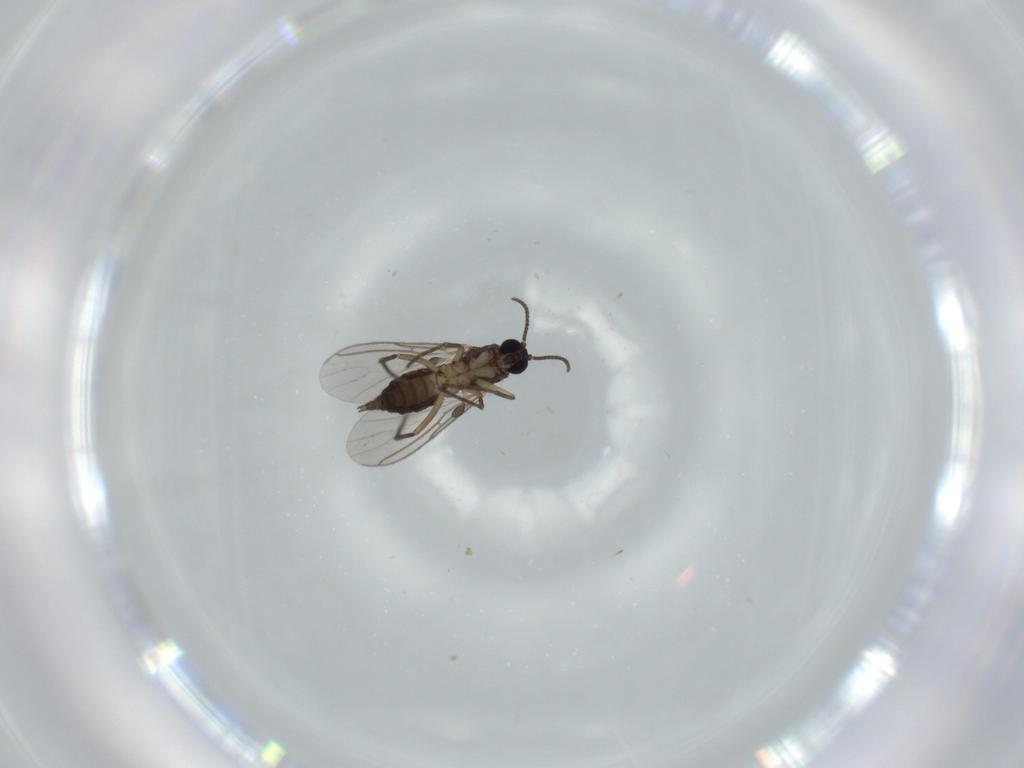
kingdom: Animalia
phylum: Arthropoda
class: Insecta
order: Diptera
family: Sciaridae
